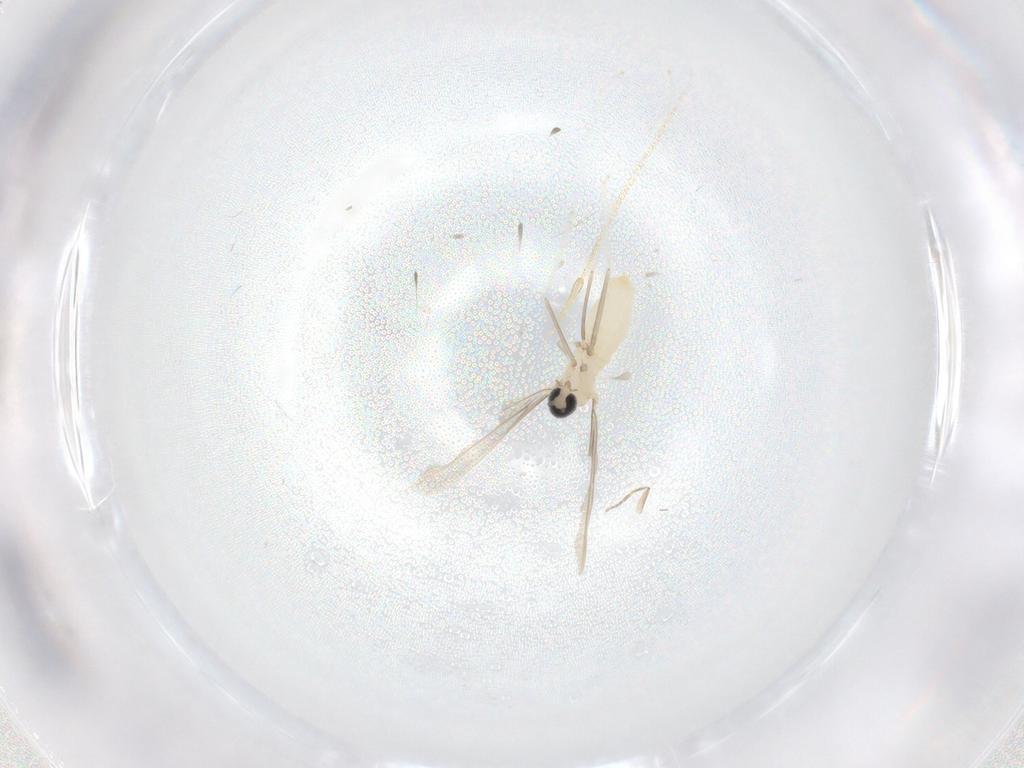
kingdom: Animalia
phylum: Arthropoda
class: Insecta
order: Diptera
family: Cecidomyiidae
